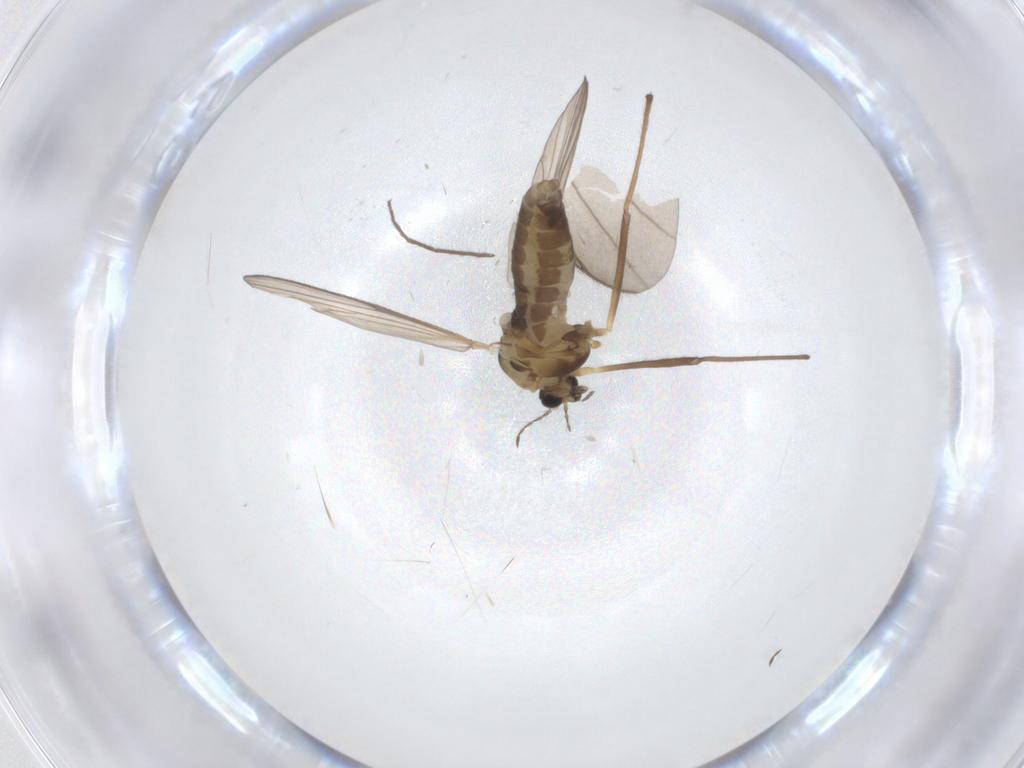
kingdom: Animalia
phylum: Arthropoda
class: Insecta
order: Diptera
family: Chironomidae
